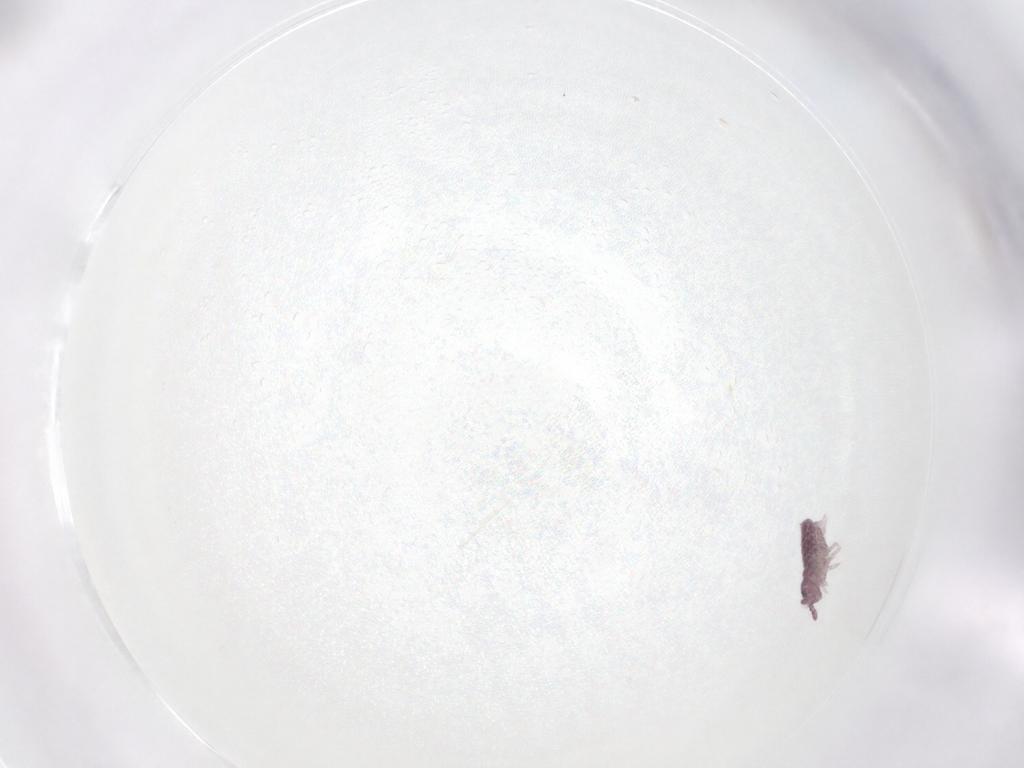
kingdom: Animalia
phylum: Arthropoda
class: Collembola
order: Poduromorpha
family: Hypogastruridae
